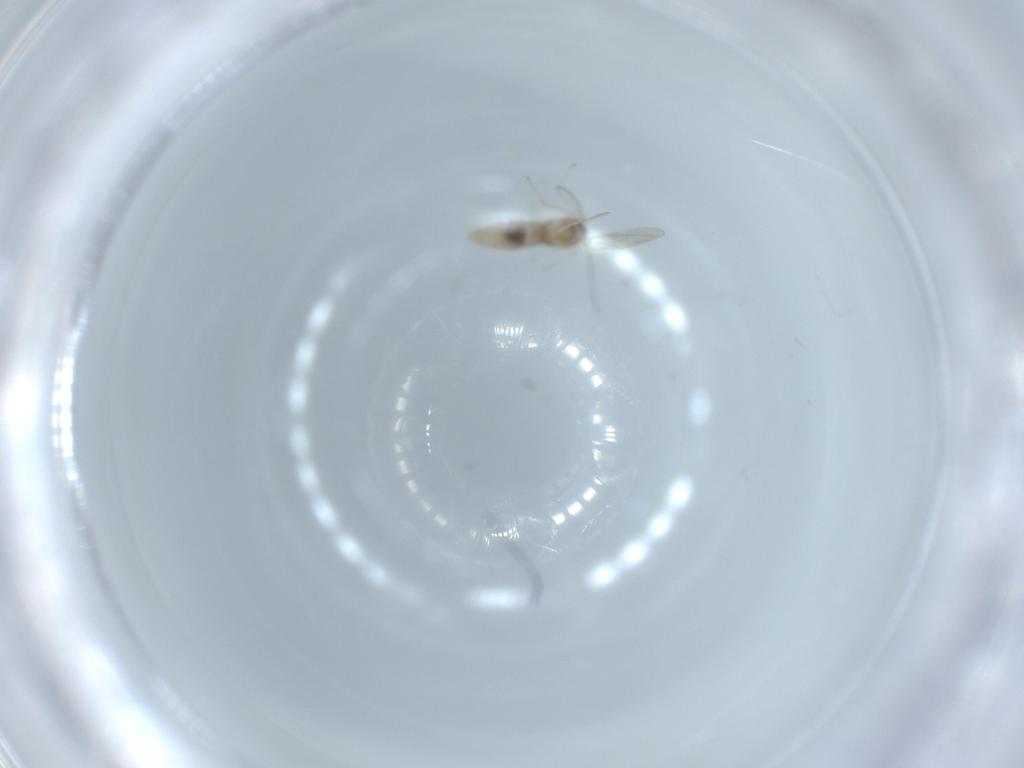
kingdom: Animalia
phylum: Arthropoda
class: Insecta
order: Diptera
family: Cecidomyiidae
